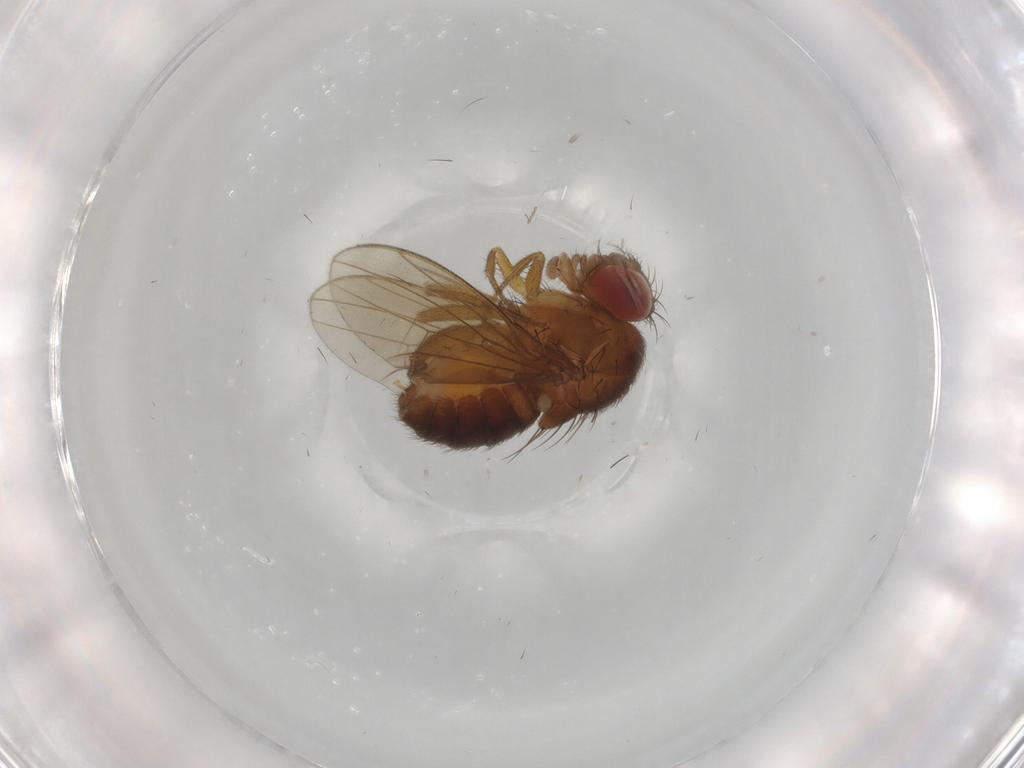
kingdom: Animalia
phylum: Arthropoda
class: Insecta
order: Diptera
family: Drosophilidae
